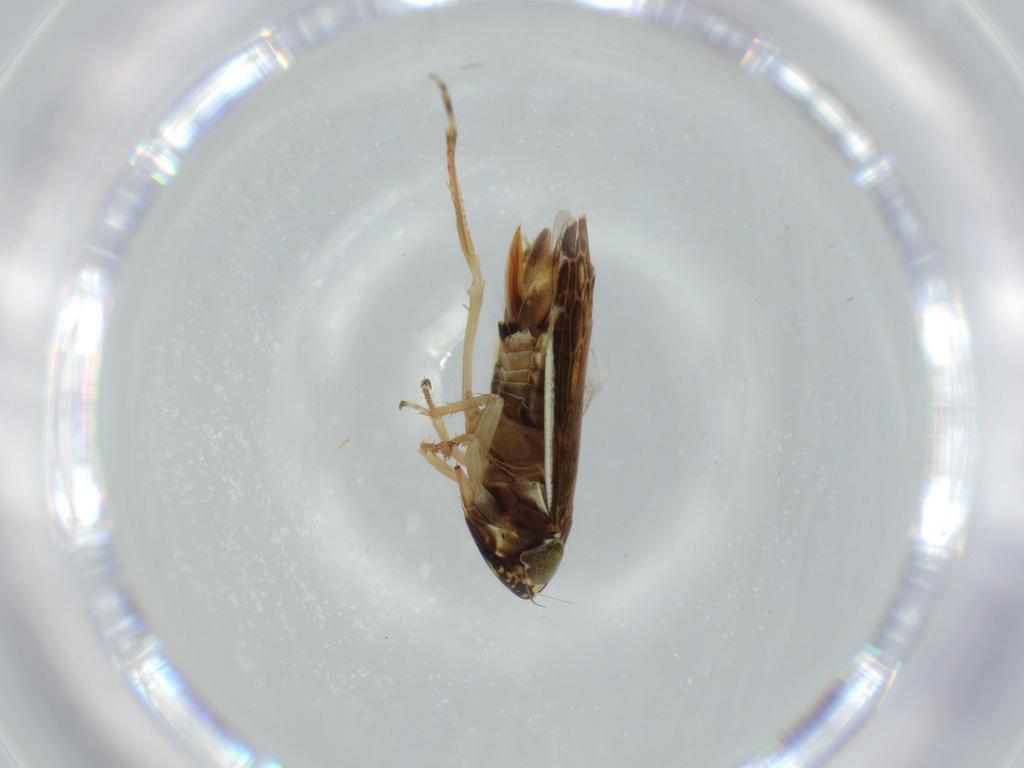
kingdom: Animalia
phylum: Arthropoda
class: Insecta
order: Hemiptera
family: Cicadellidae
